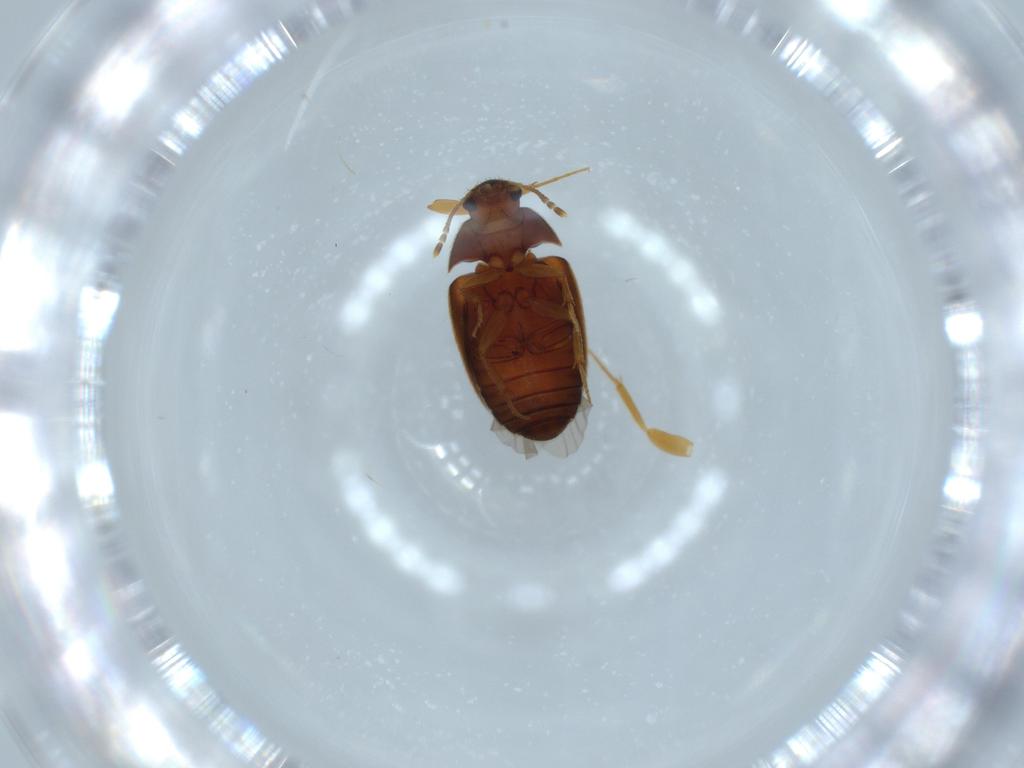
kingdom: Animalia
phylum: Arthropoda
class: Insecta
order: Coleoptera
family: Mycetophagidae
